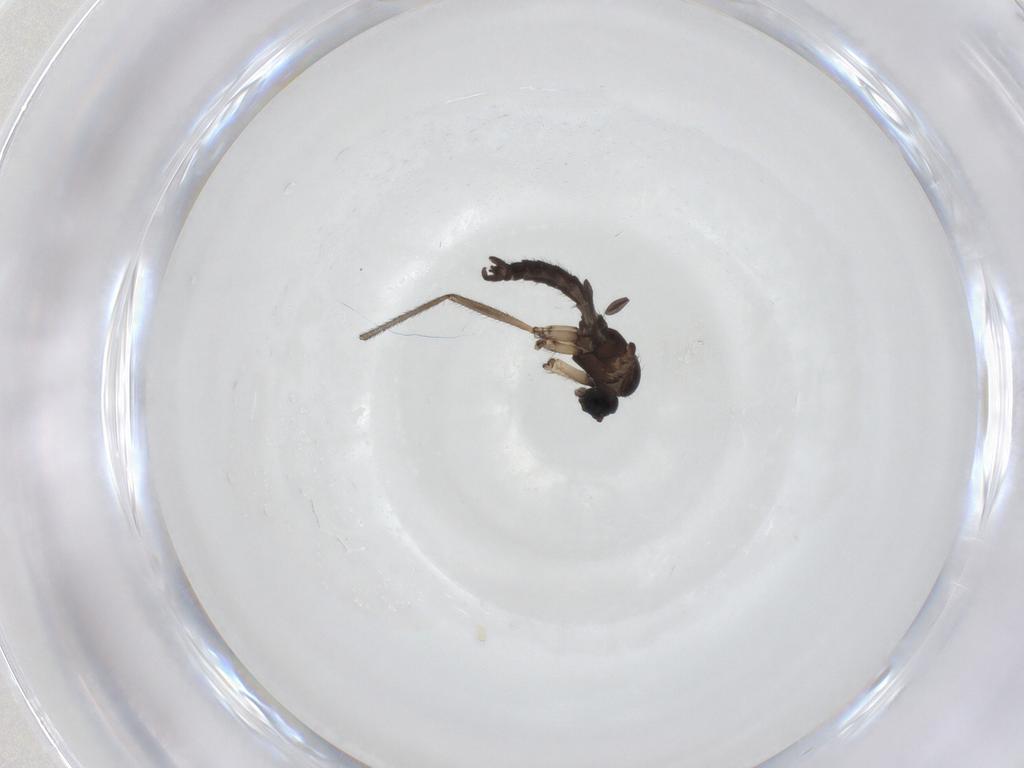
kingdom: Animalia
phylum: Arthropoda
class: Insecta
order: Diptera
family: Sciaridae
